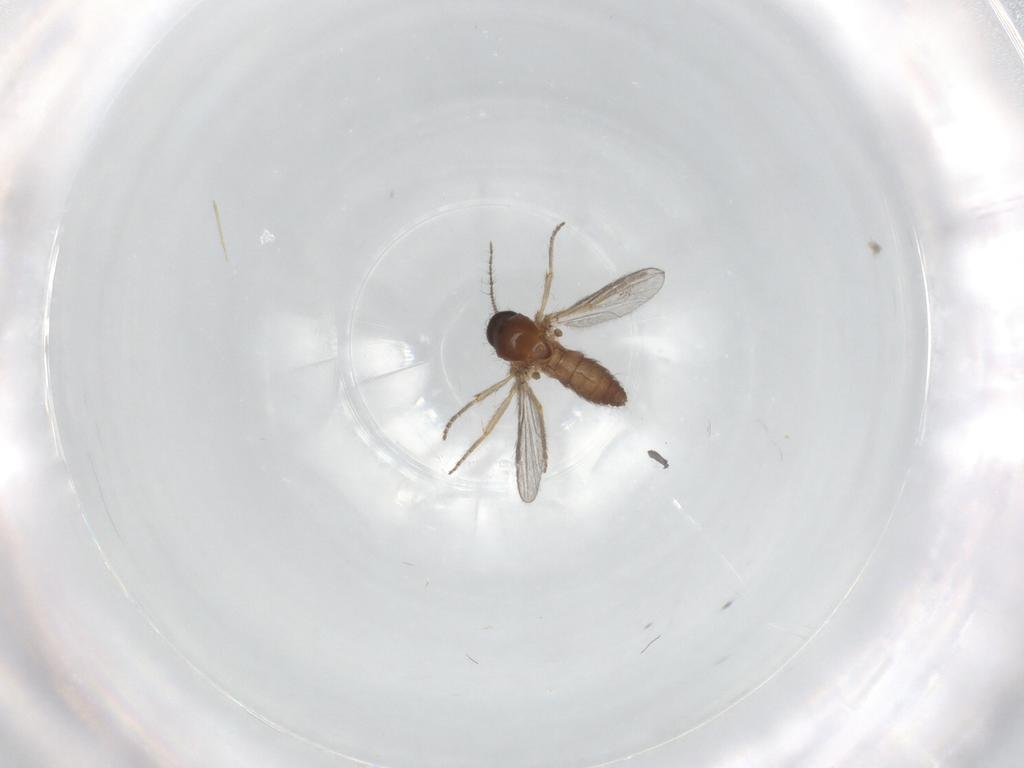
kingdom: Animalia
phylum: Arthropoda
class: Insecta
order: Diptera
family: Ceratopogonidae
